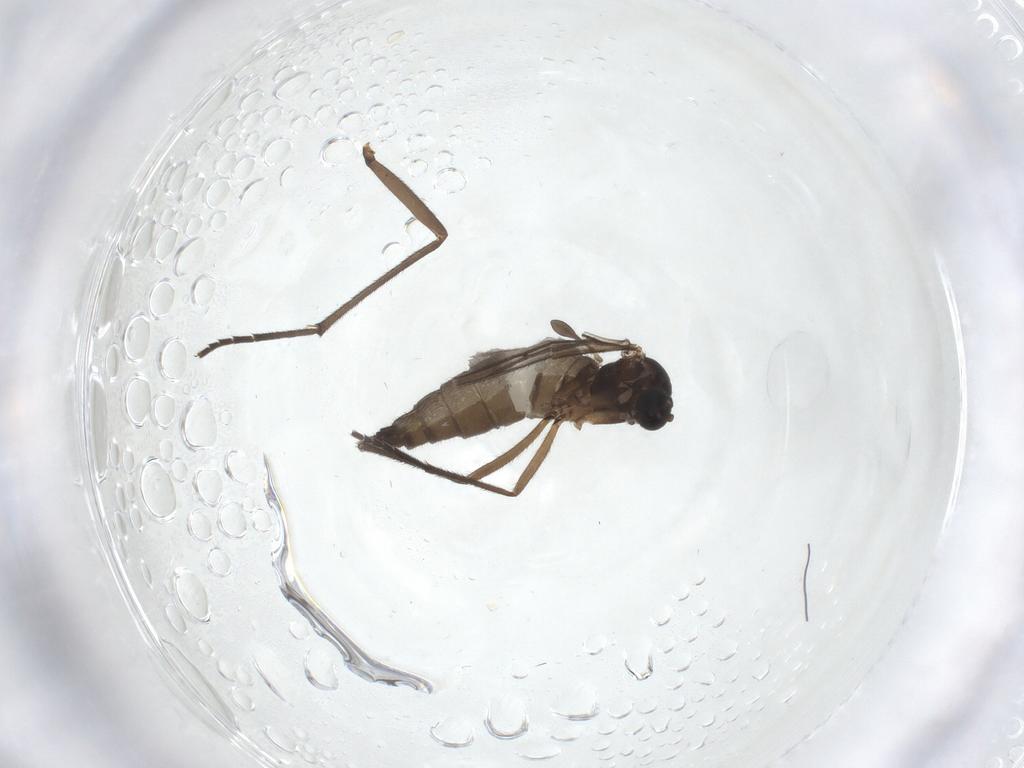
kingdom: Animalia
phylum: Arthropoda
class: Insecta
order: Diptera
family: Sciaridae
